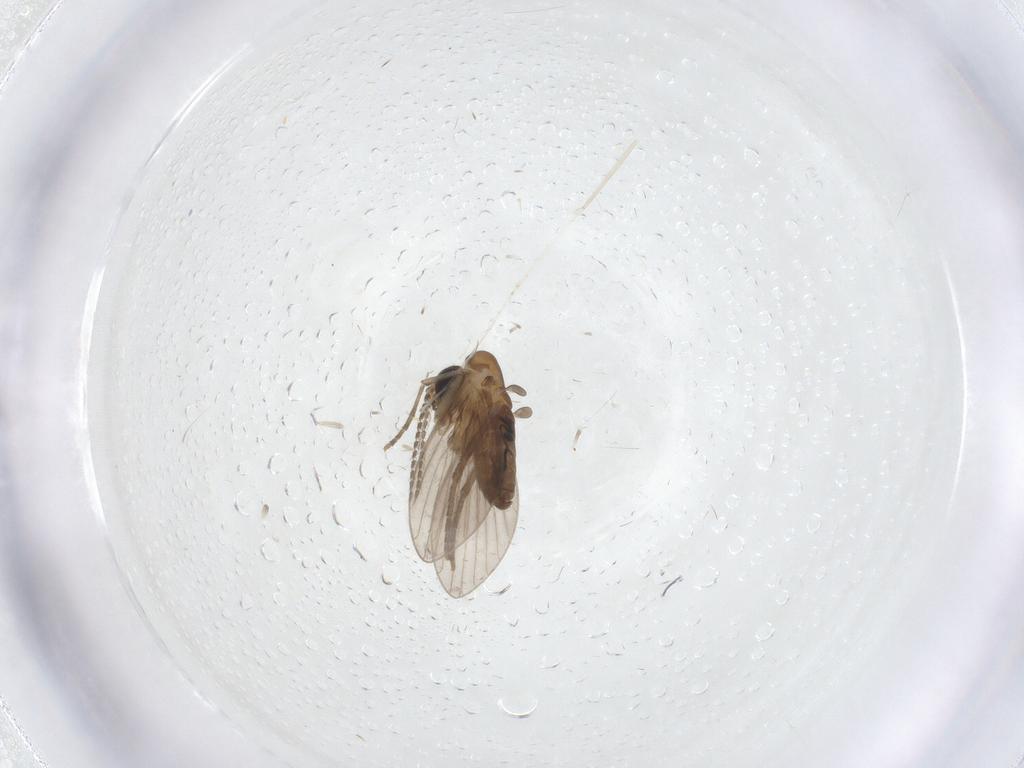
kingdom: Animalia
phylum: Arthropoda
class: Insecta
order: Diptera
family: Cecidomyiidae
